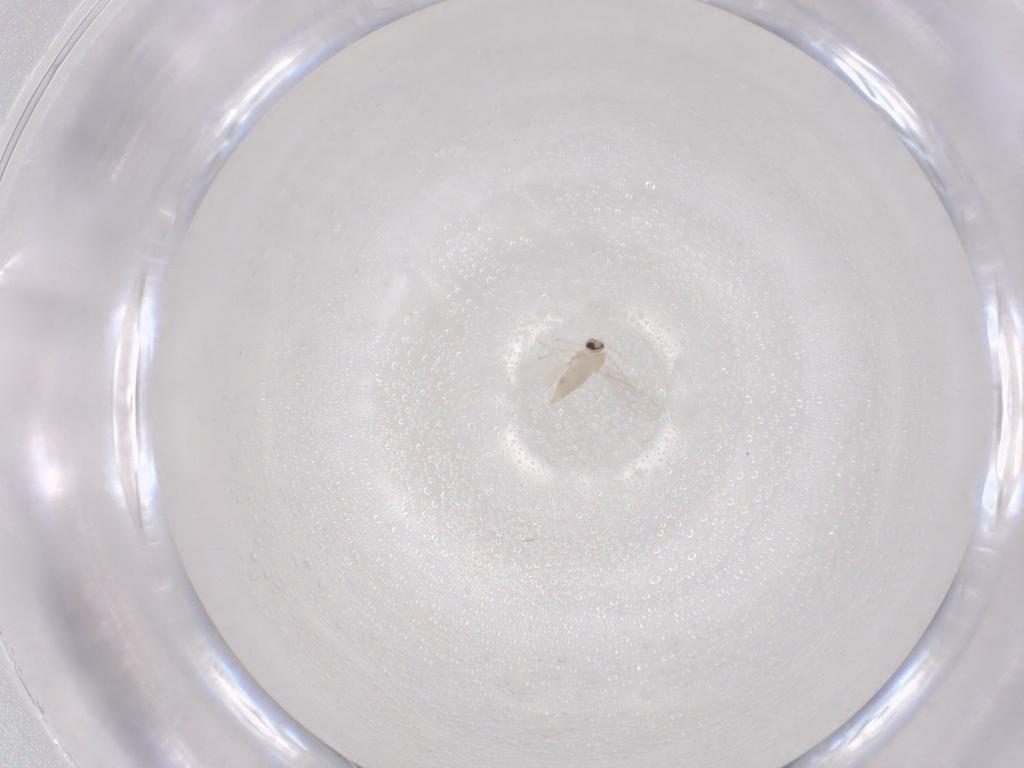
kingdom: Animalia
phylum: Arthropoda
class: Insecta
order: Diptera
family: Cecidomyiidae
